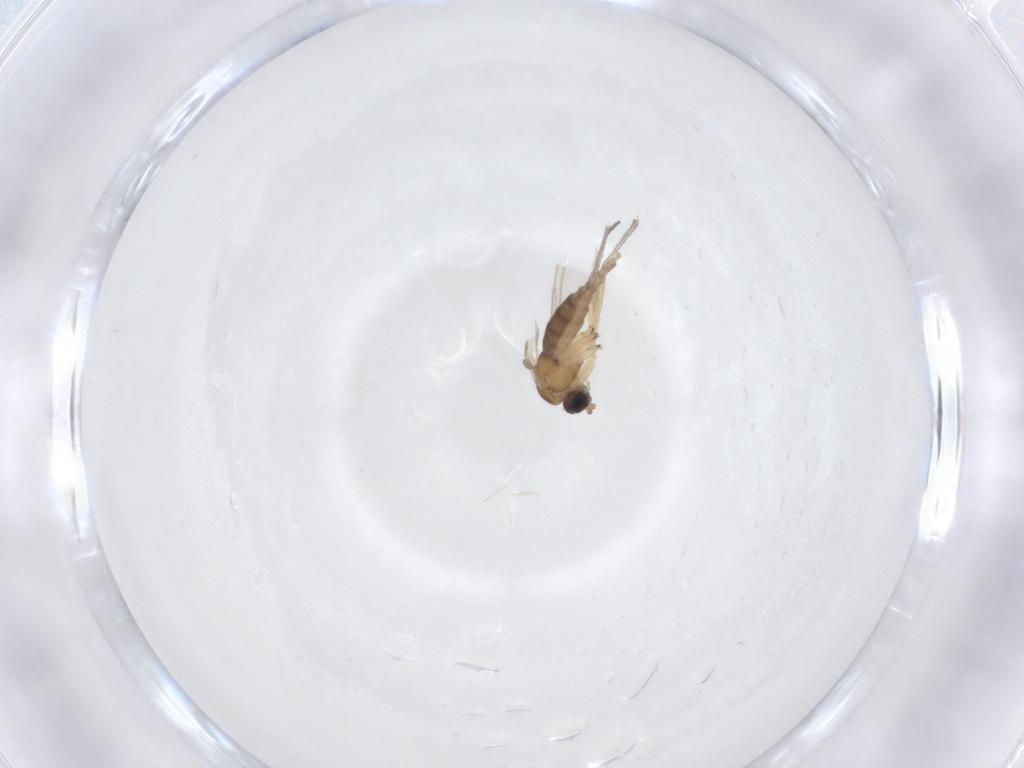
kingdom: Animalia
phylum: Arthropoda
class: Insecta
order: Diptera
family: Sciaridae
